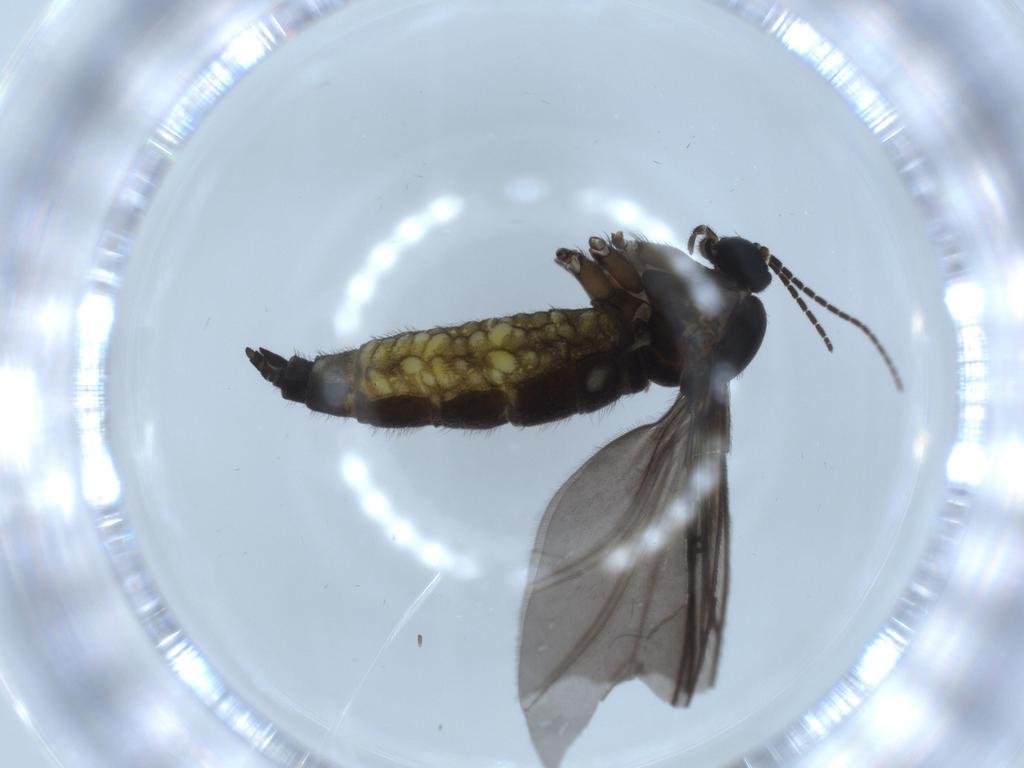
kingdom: Animalia
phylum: Arthropoda
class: Insecta
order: Diptera
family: Sciaridae
